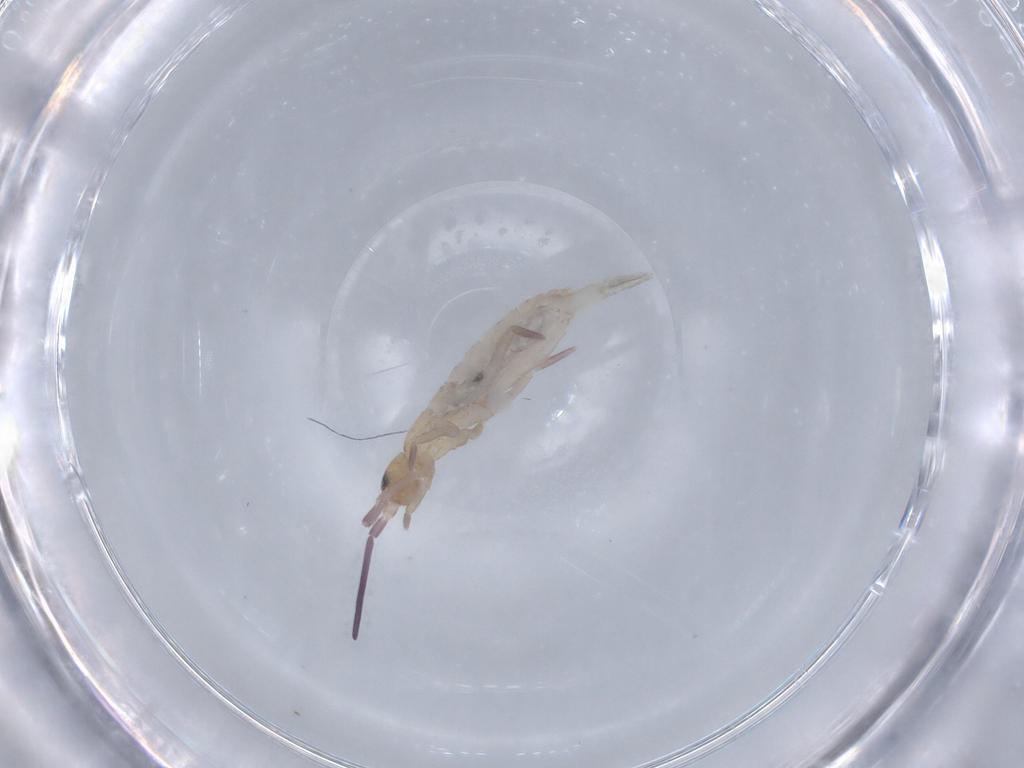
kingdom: Animalia
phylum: Arthropoda
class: Collembola
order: Entomobryomorpha
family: Tomoceridae
